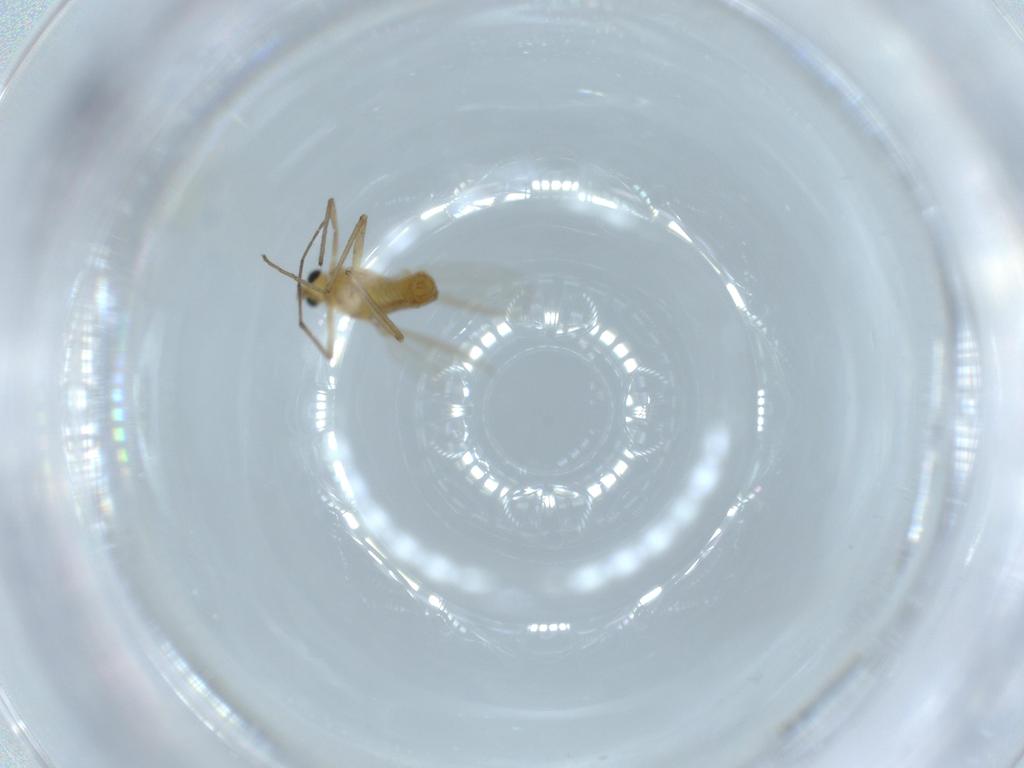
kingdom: Animalia
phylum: Arthropoda
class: Insecta
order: Diptera
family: Chironomidae
